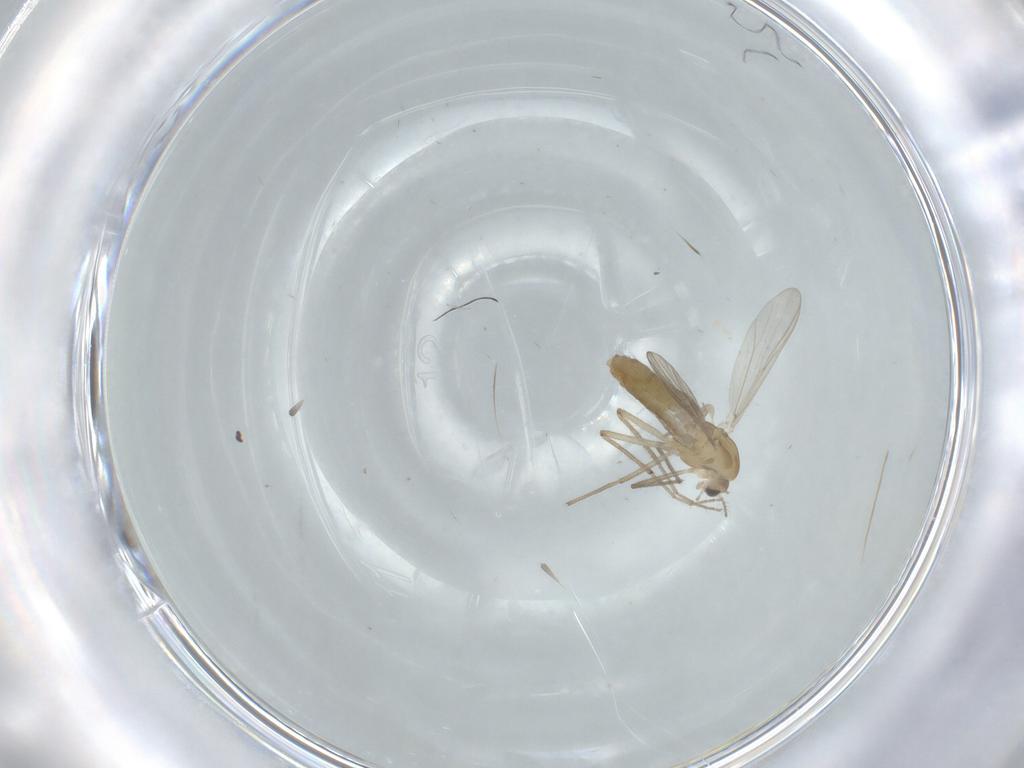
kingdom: Animalia
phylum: Arthropoda
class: Insecta
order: Diptera
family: Chironomidae
